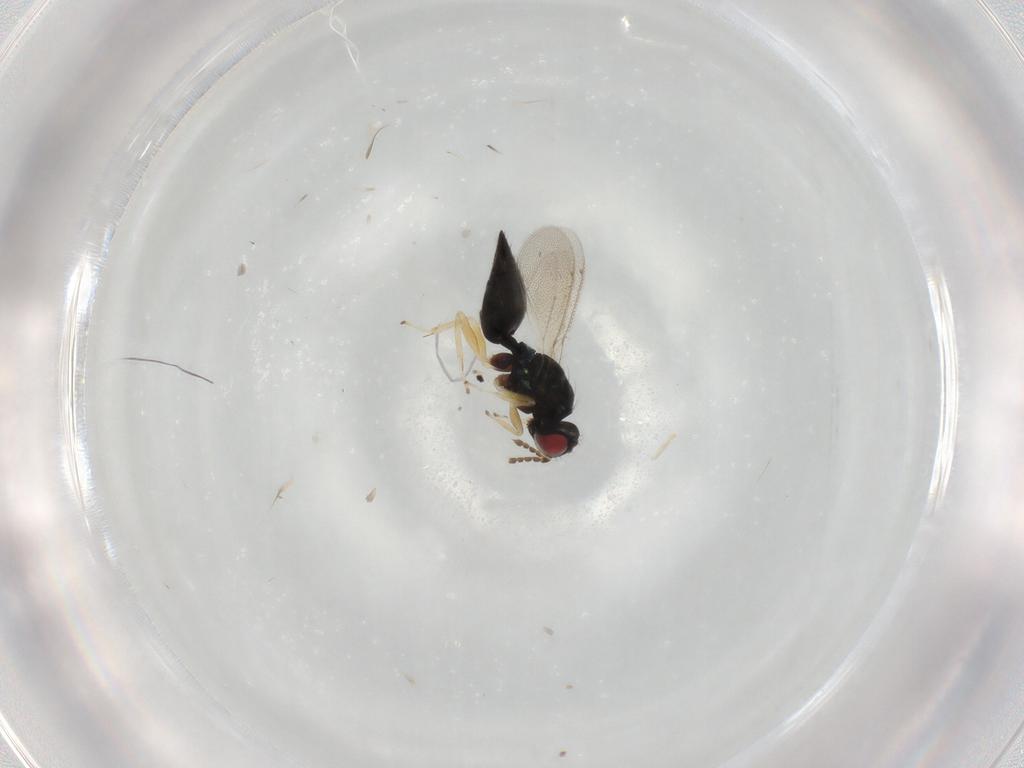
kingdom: Animalia
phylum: Arthropoda
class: Insecta
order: Hymenoptera
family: Eulophidae
